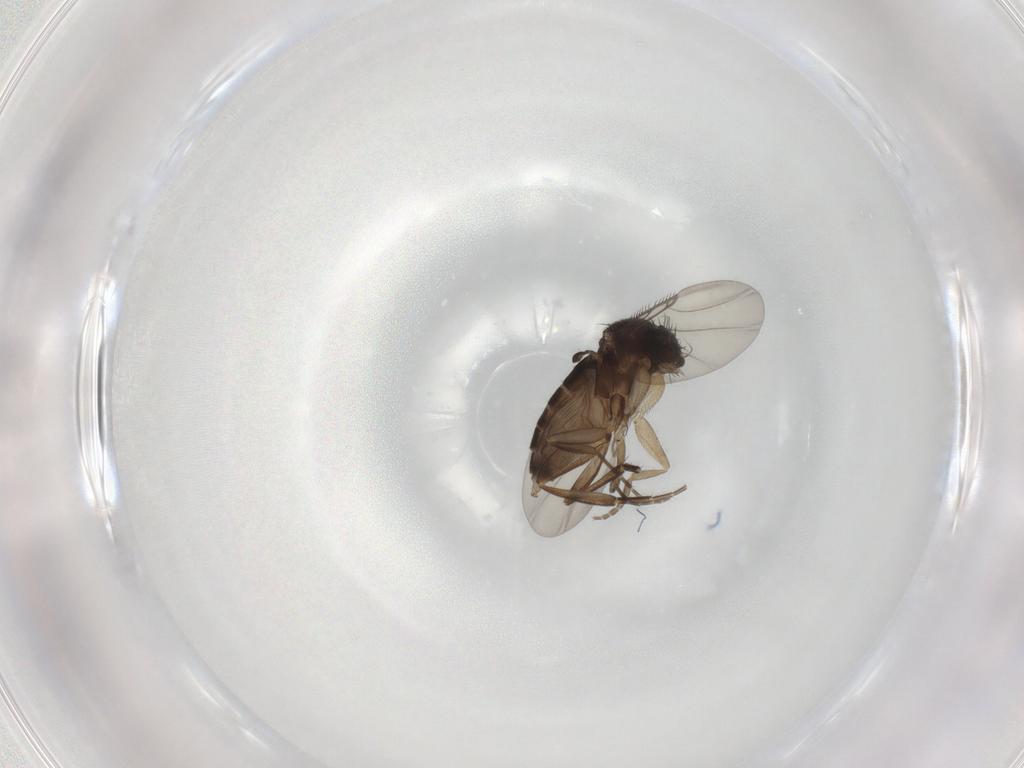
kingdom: Animalia
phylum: Arthropoda
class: Insecta
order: Diptera
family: Phoridae
